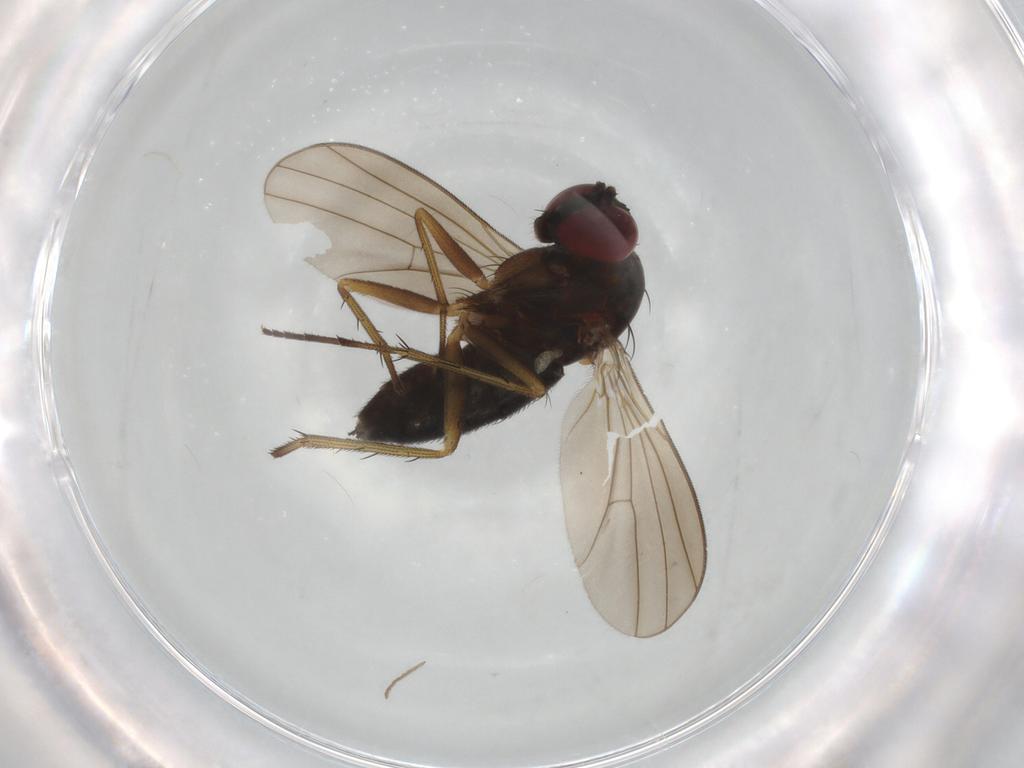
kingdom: Animalia
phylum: Arthropoda
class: Insecta
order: Diptera
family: Dolichopodidae
